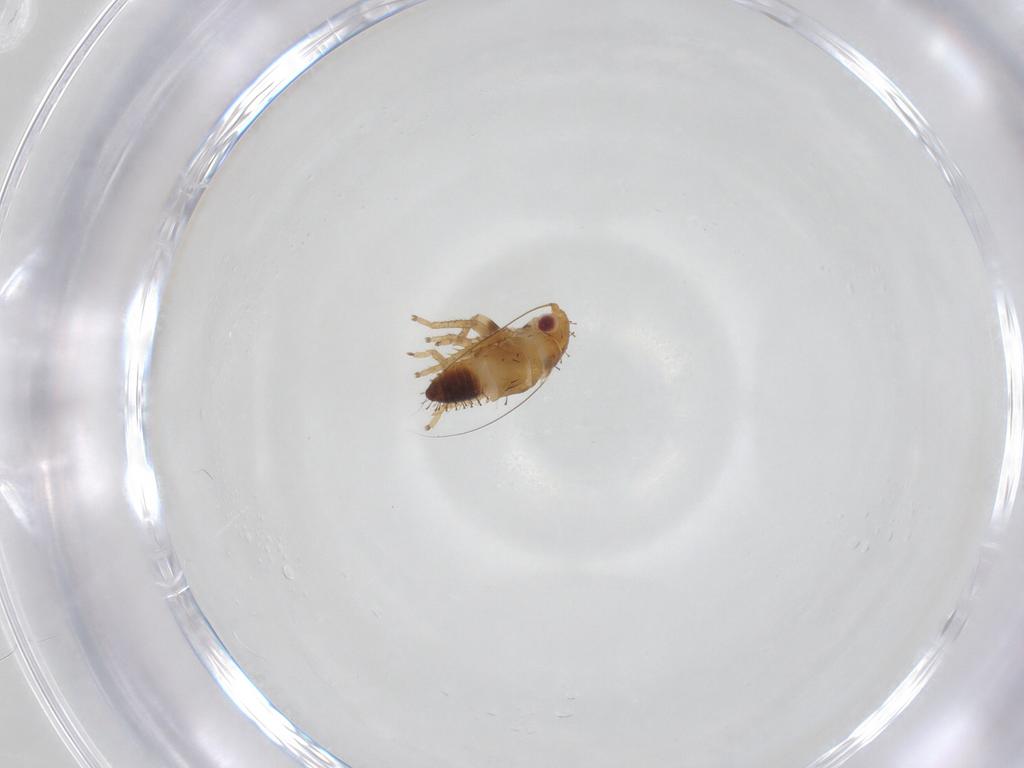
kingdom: Animalia
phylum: Arthropoda
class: Insecta
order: Hemiptera
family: Cicadellidae
